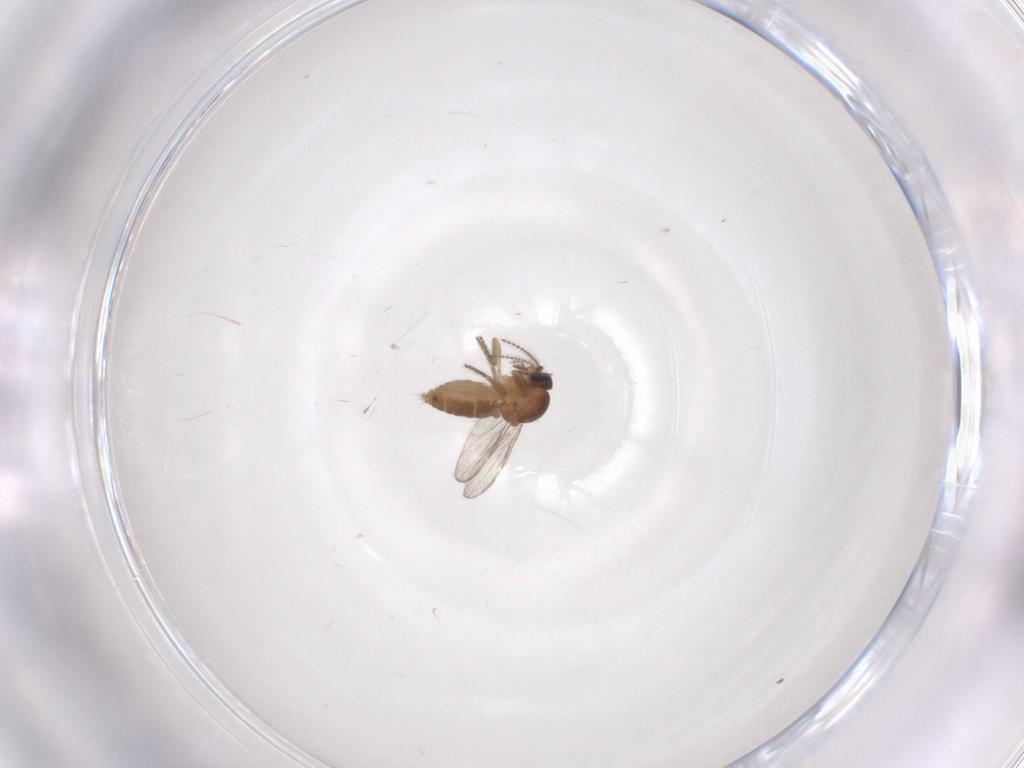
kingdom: Animalia
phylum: Arthropoda
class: Insecta
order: Diptera
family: Ceratopogonidae
